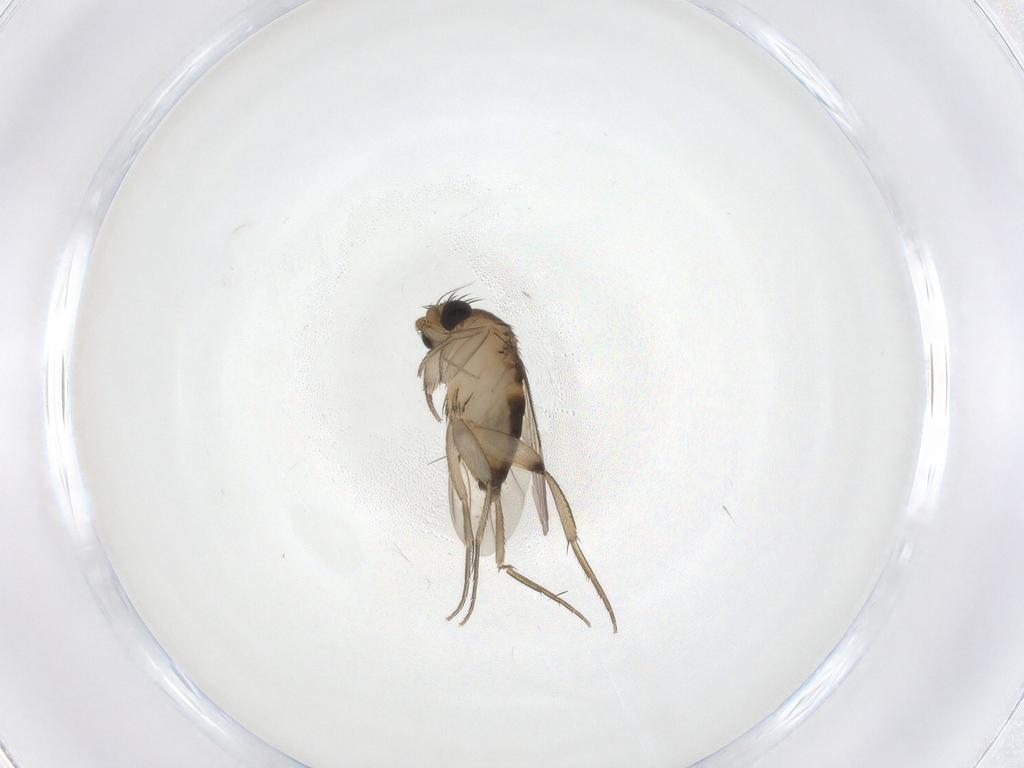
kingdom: Animalia
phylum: Arthropoda
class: Insecta
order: Diptera
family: Phoridae
